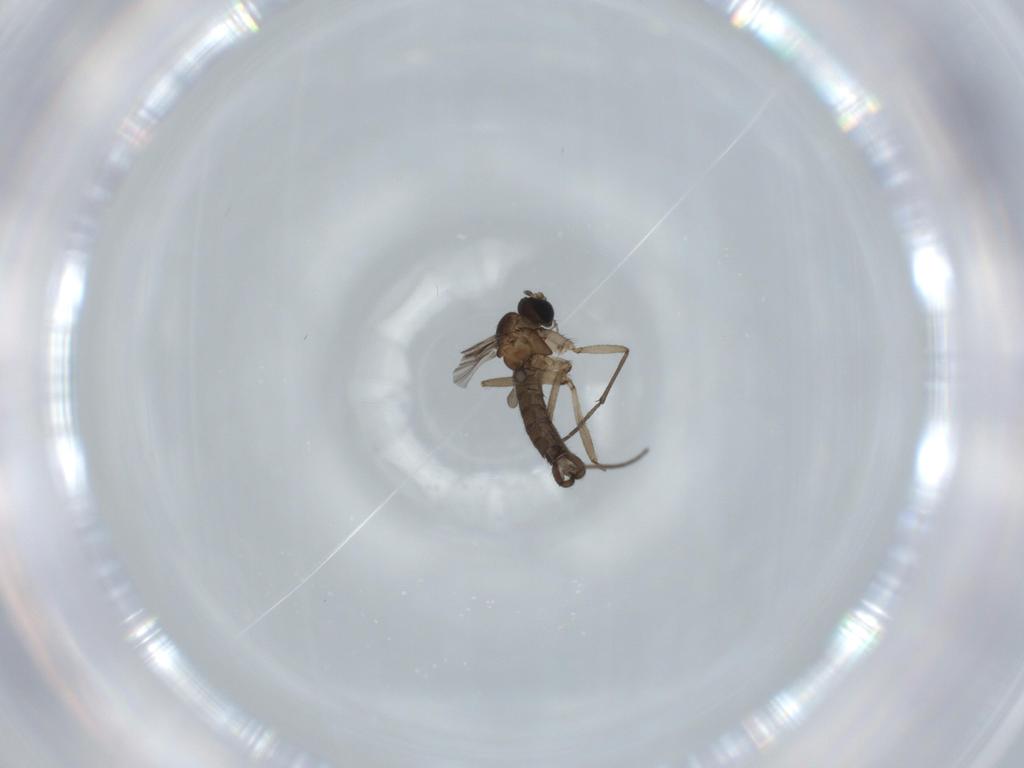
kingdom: Animalia
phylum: Arthropoda
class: Insecta
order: Diptera
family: Sciaridae
